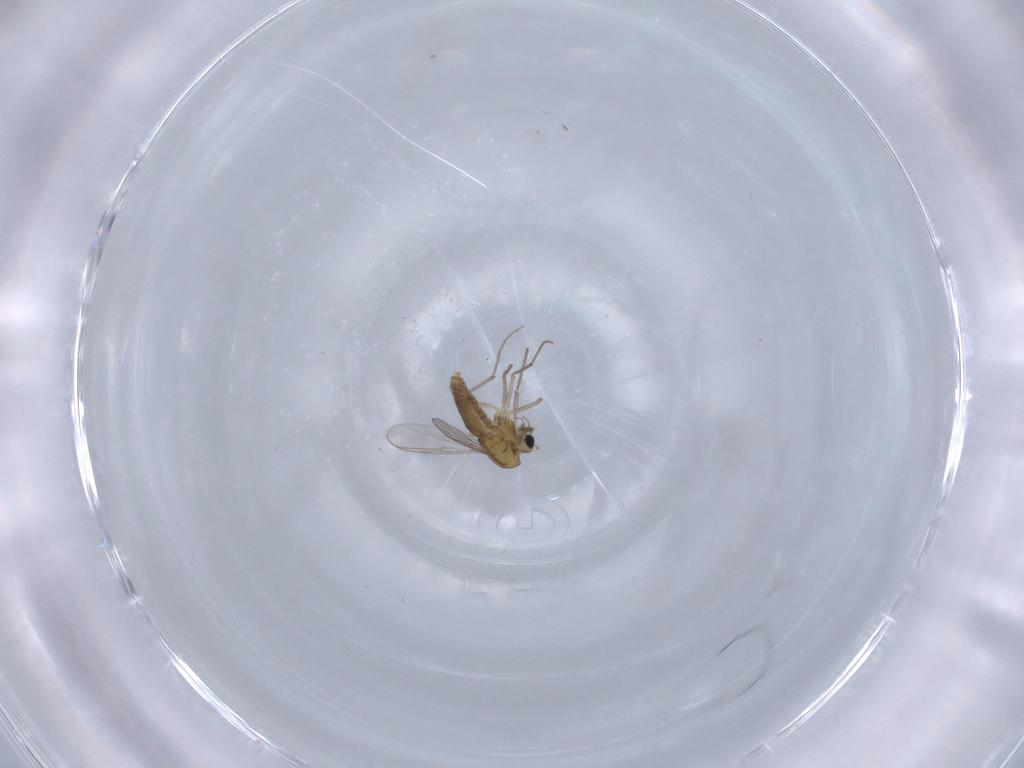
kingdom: Animalia
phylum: Arthropoda
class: Insecta
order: Diptera
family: Chironomidae
